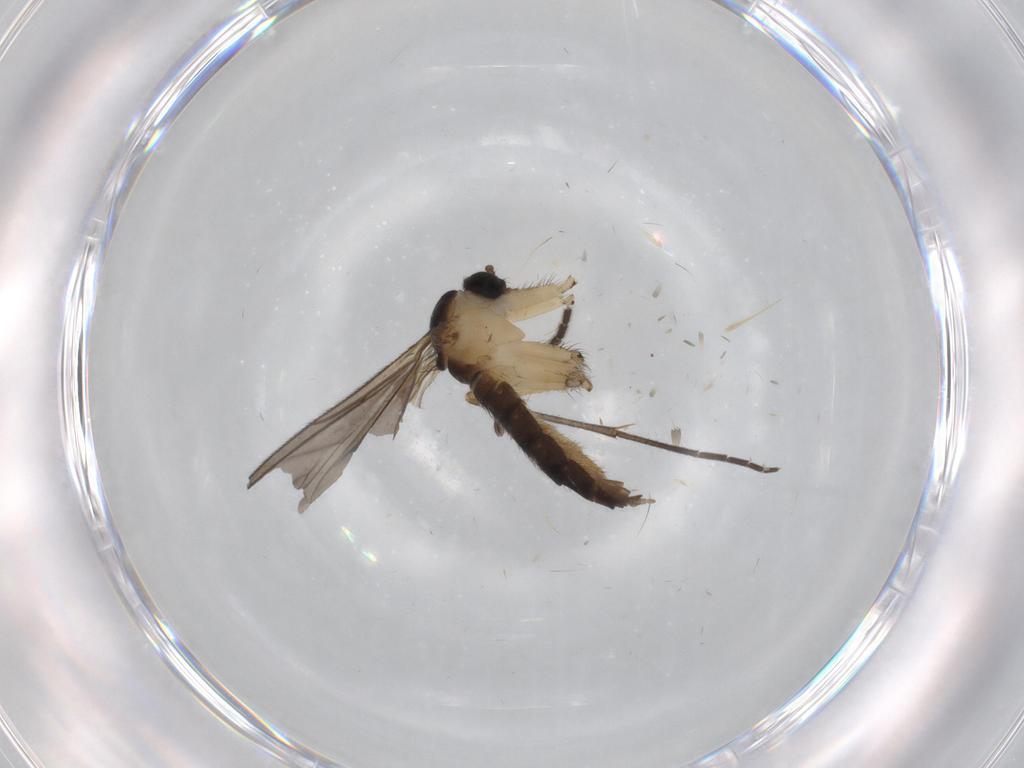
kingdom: Animalia
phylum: Arthropoda
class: Insecta
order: Diptera
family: Sciaridae
